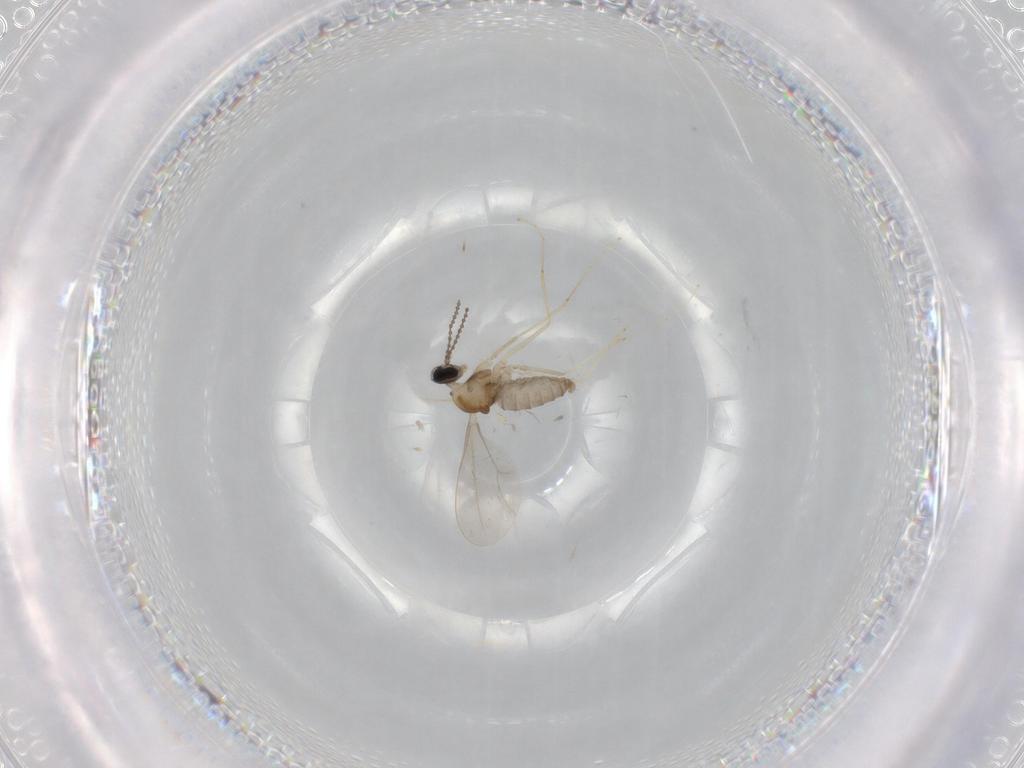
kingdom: Animalia
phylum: Arthropoda
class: Insecta
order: Diptera
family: Cecidomyiidae
